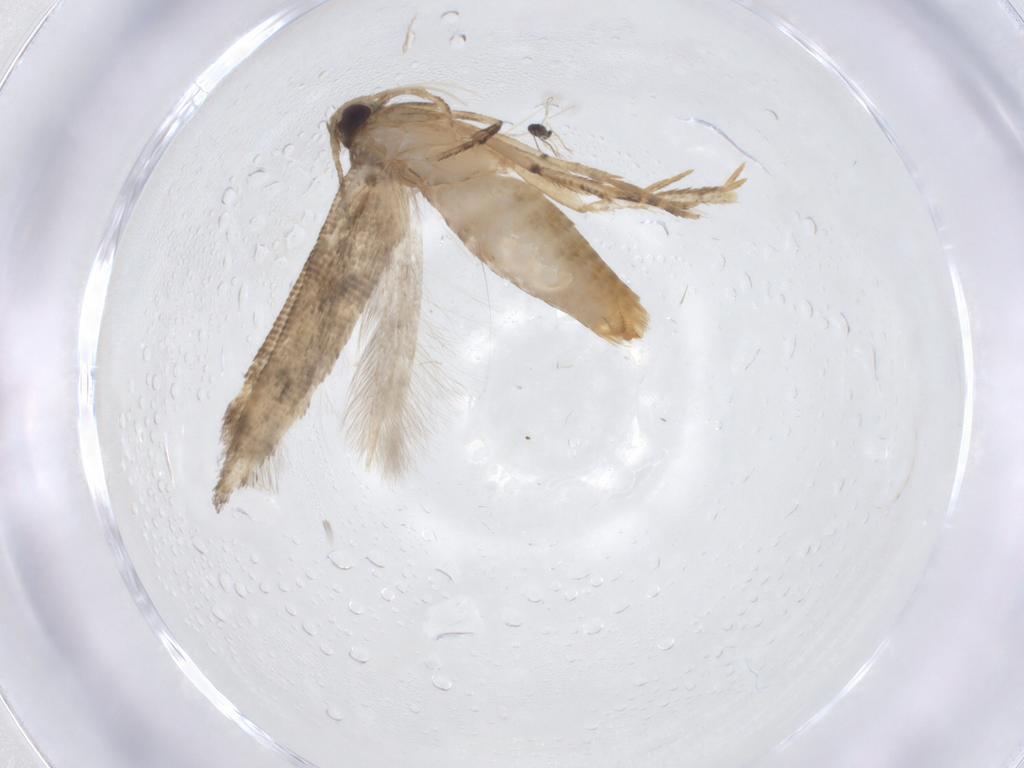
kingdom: Animalia
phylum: Arthropoda
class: Insecta
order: Lepidoptera
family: Gelechiidae
